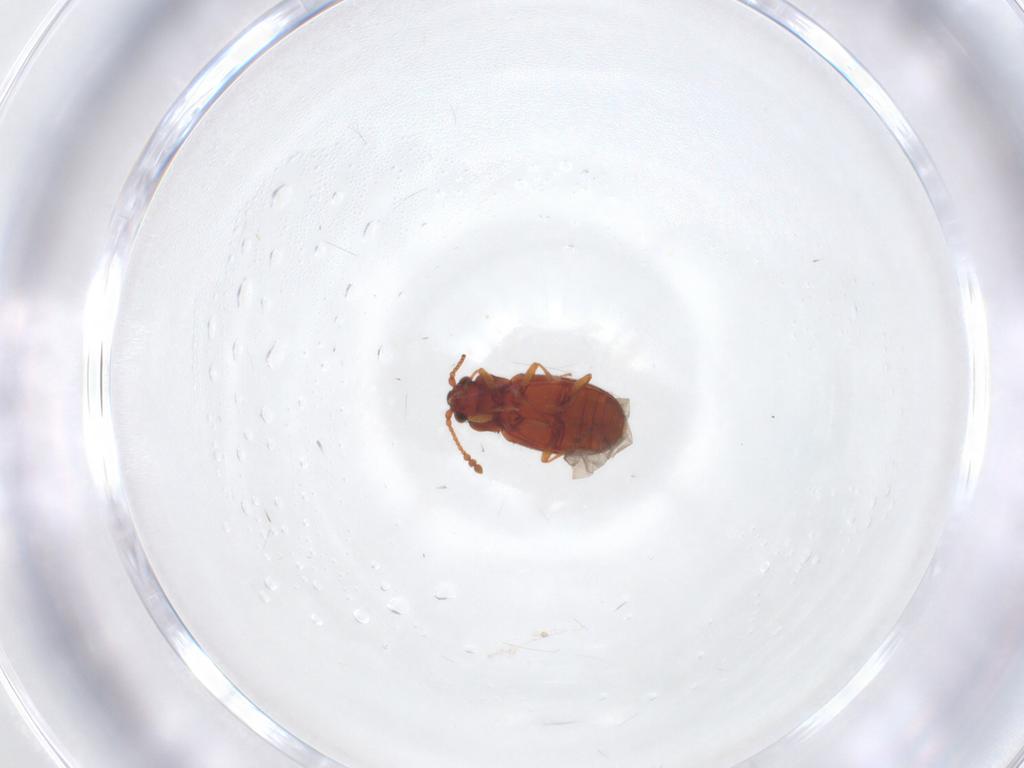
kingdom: Animalia
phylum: Arthropoda
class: Insecta
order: Coleoptera
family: Cryptophagidae
